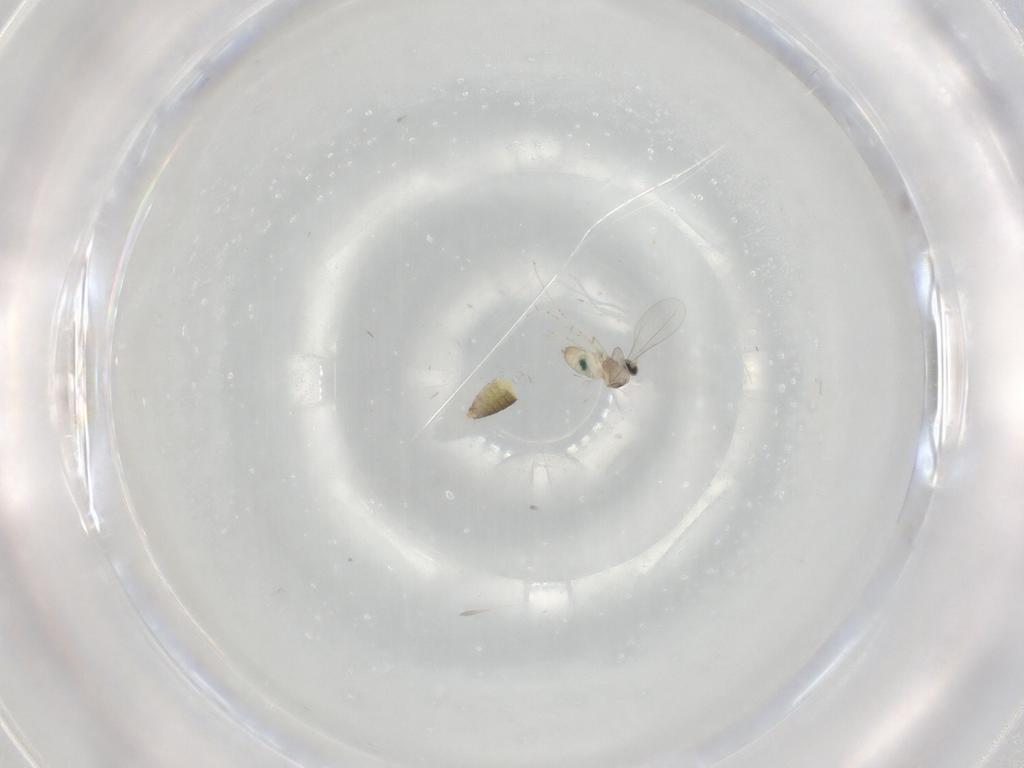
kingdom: Animalia
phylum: Arthropoda
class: Insecta
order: Diptera
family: Cecidomyiidae
